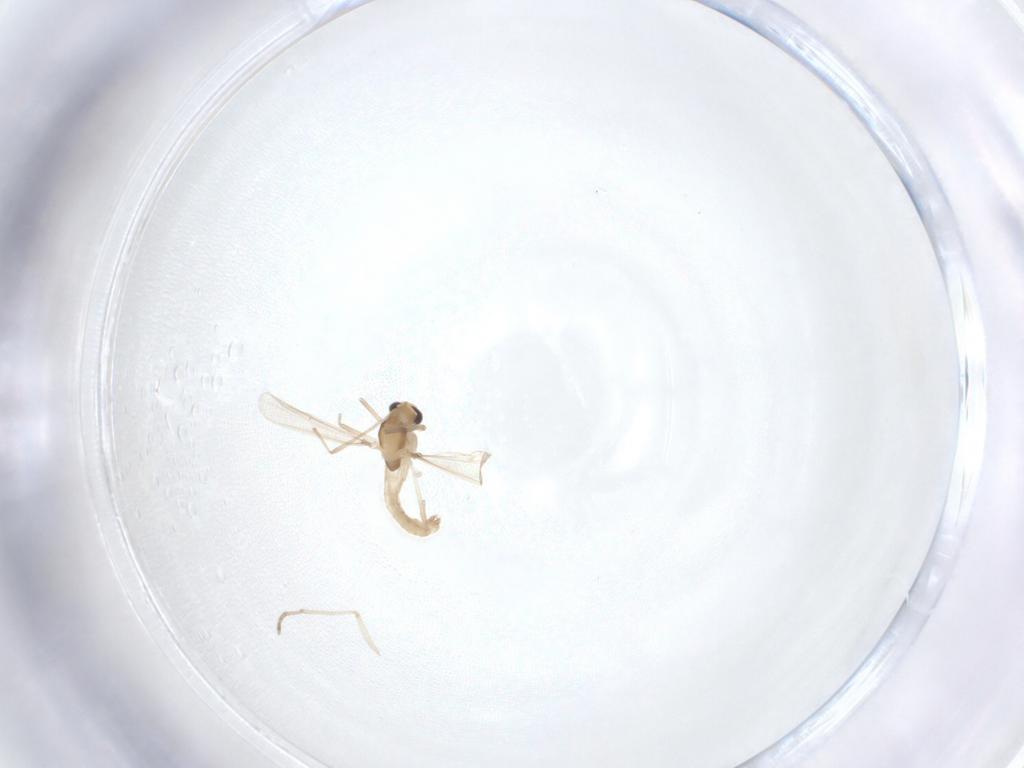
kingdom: Animalia
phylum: Arthropoda
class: Insecta
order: Diptera
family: Chironomidae
